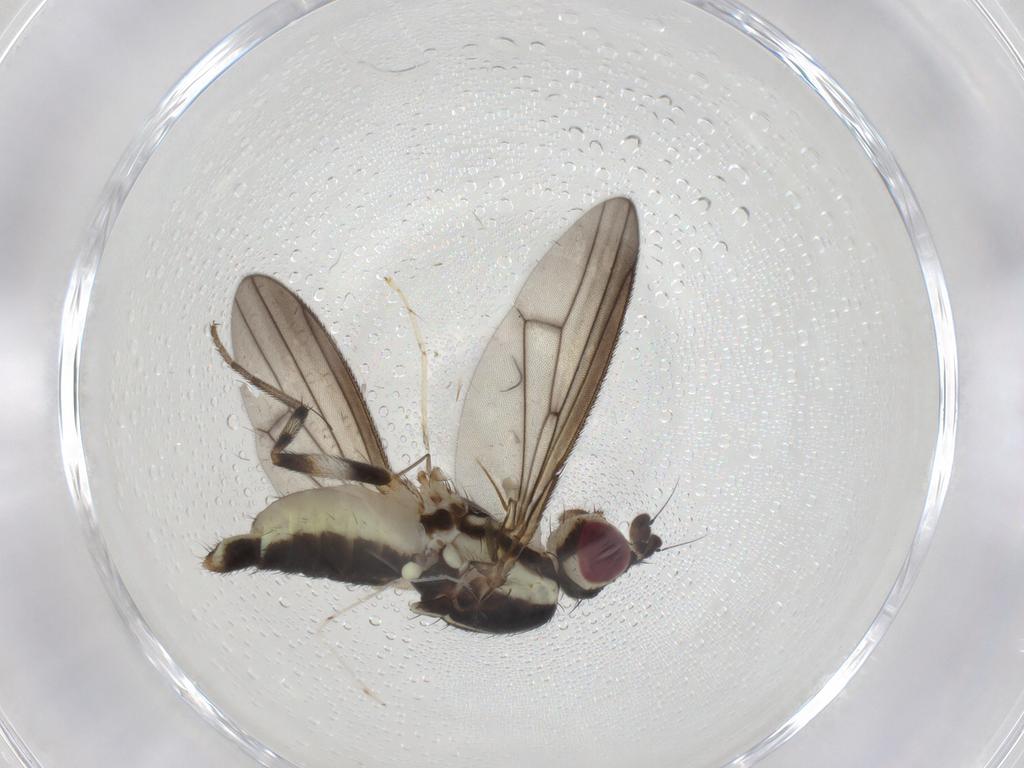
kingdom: Animalia
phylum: Arthropoda
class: Insecta
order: Diptera
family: Pseudopomyzidae
